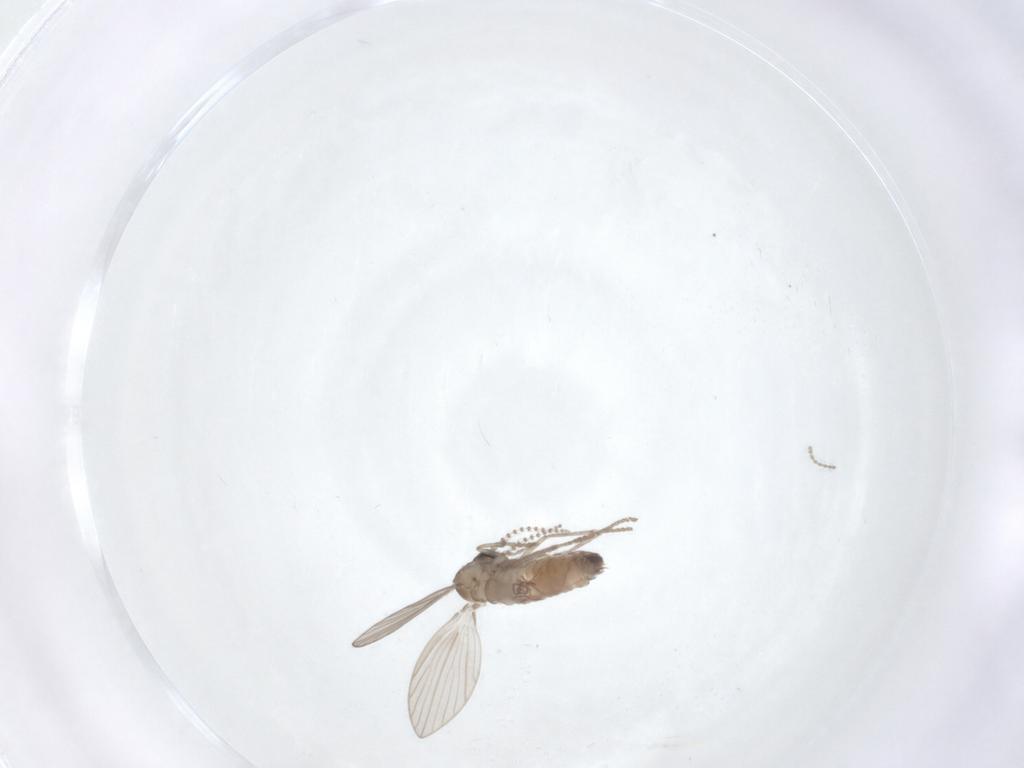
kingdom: Animalia
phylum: Arthropoda
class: Insecta
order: Diptera
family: Psychodidae
